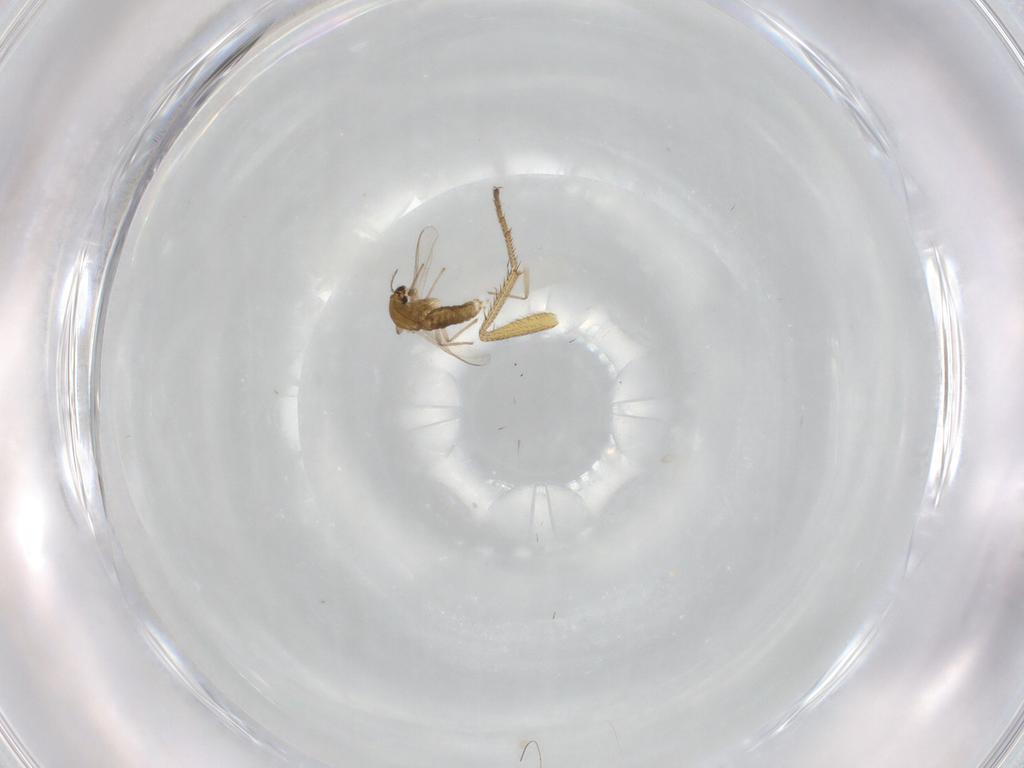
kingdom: Animalia
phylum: Arthropoda
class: Insecta
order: Diptera
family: Chironomidae
